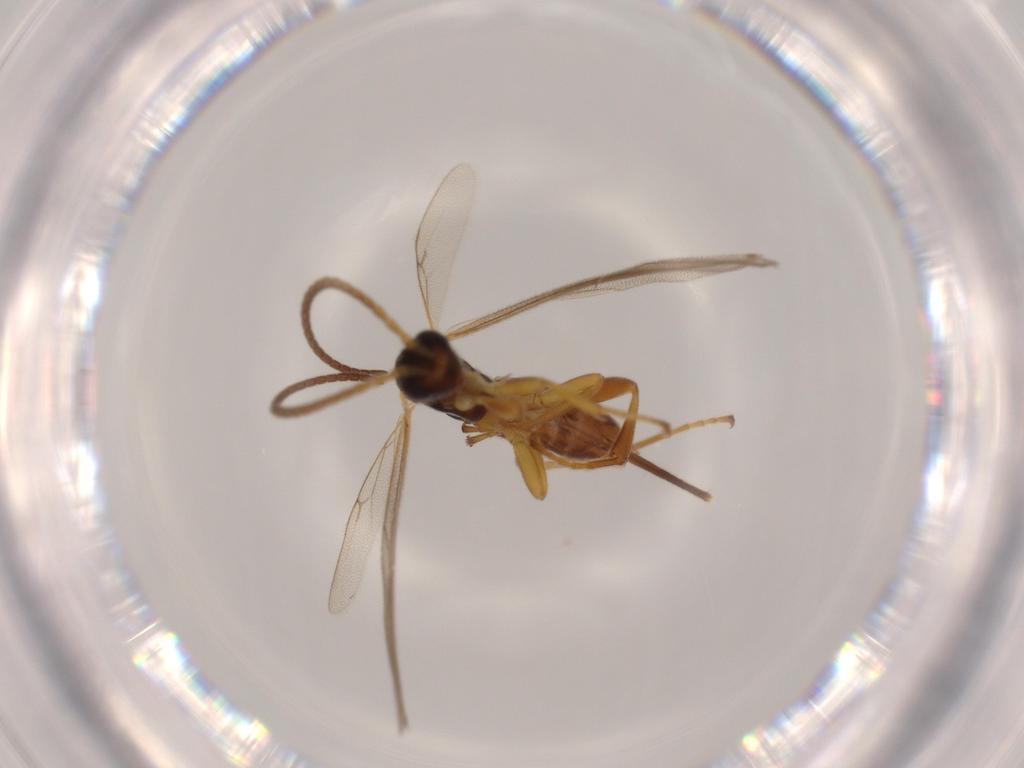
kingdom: Animalia
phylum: Arthropoda
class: Insecta
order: Hymenoptera
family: Ichneumonidae
